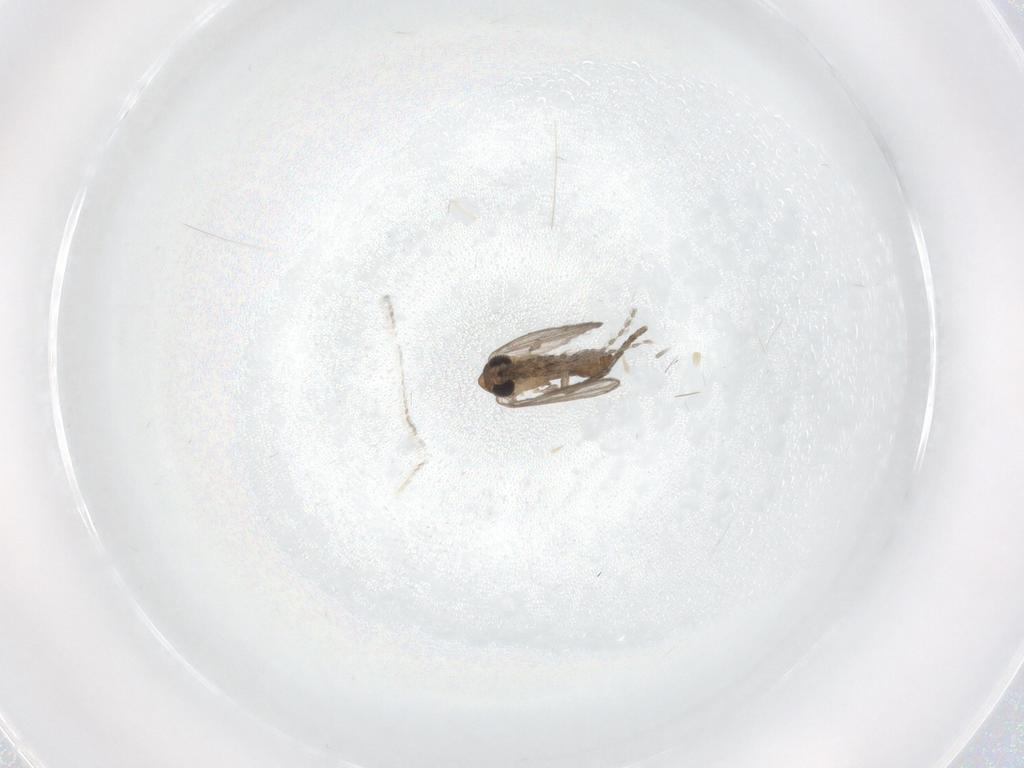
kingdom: Animalia
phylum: Arthropoda
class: Insecta
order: Diptera
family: Psychodidae
